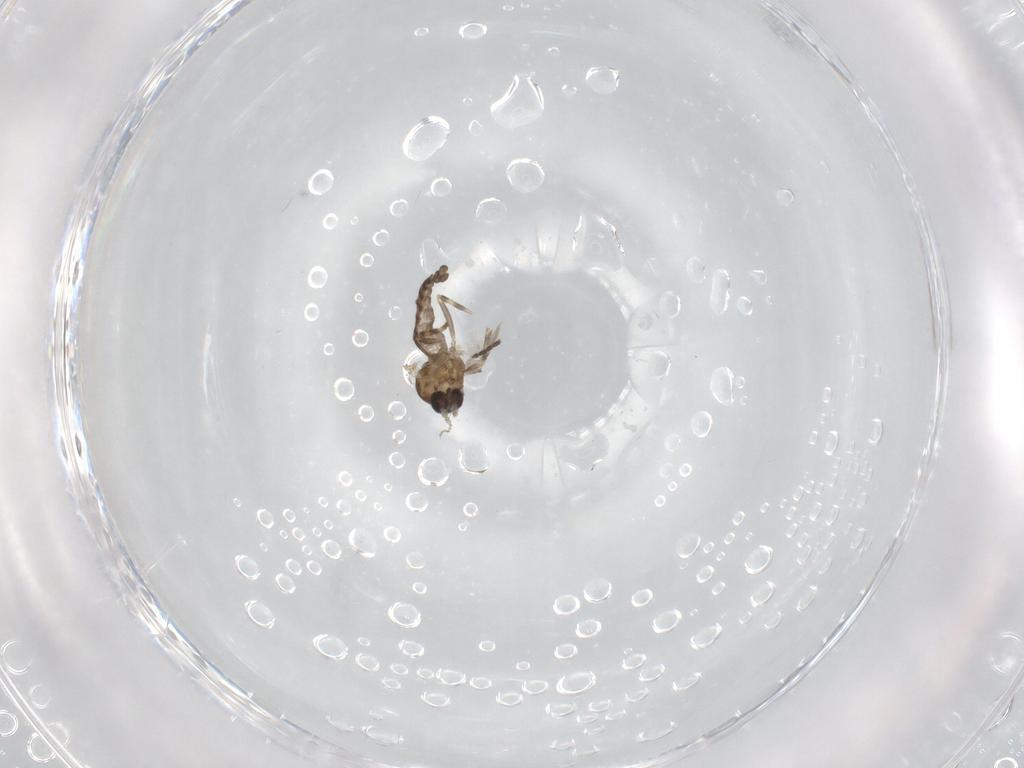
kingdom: Animalia
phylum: Arthropoda
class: Insecta
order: Diptera
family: Ceratopogonidae
